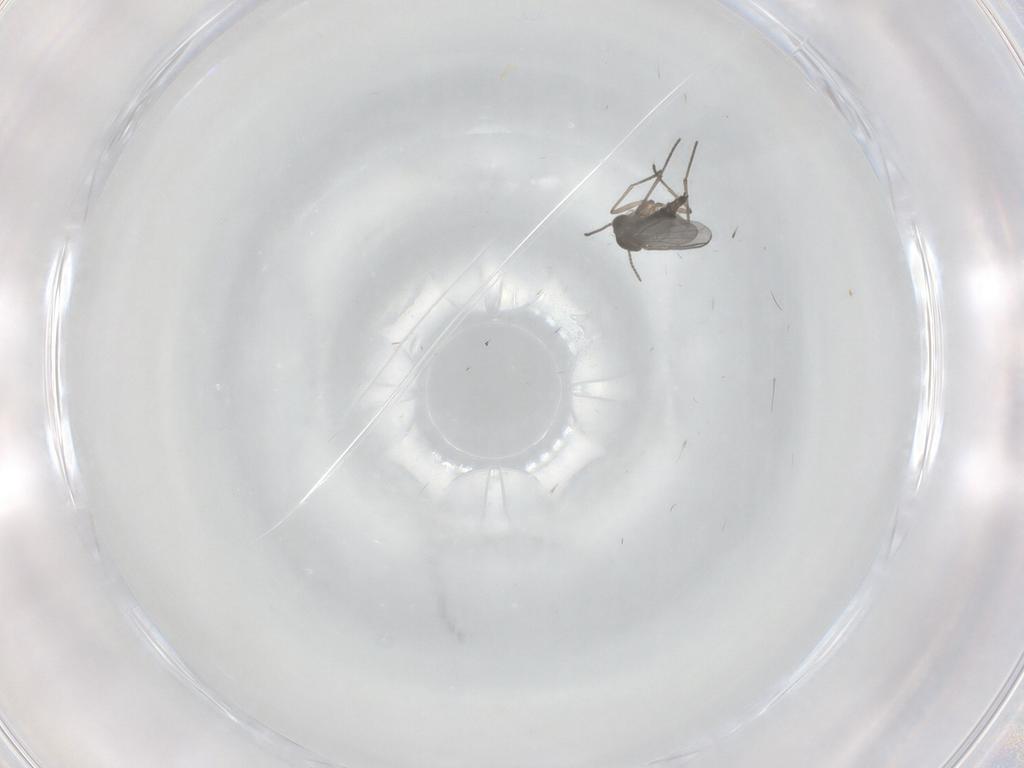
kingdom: Animalia
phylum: Arthropoda
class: Insecta
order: Diptera
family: Sciaridae
